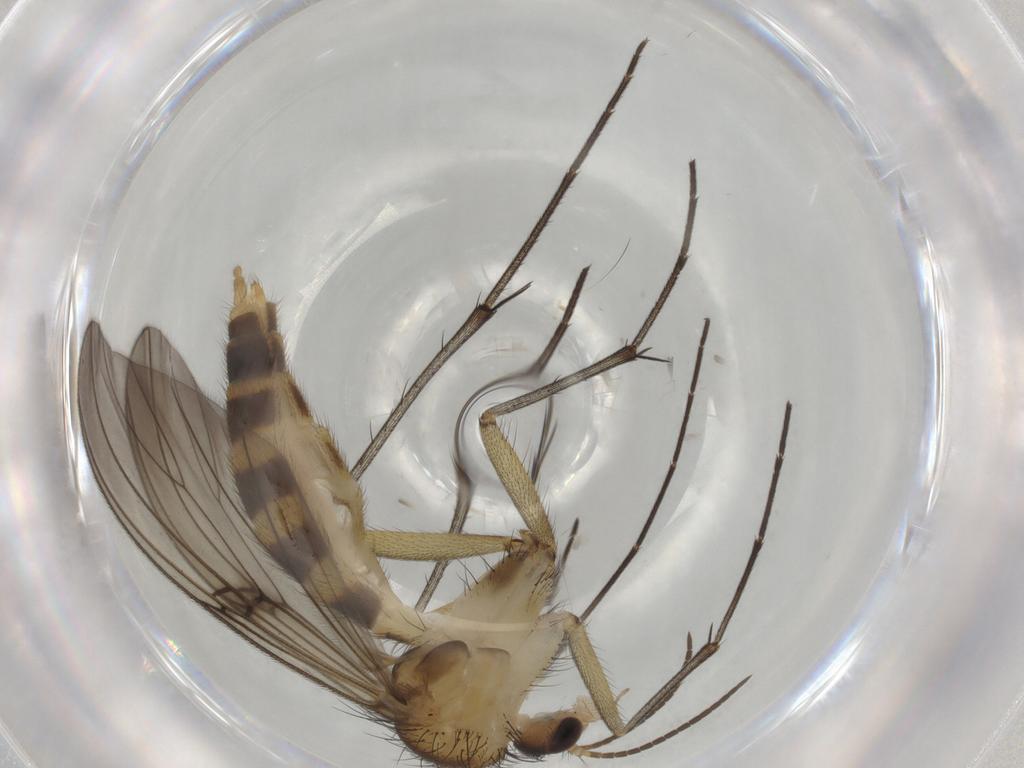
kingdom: Animalia
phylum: Arthropoda
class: Insecta
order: Diptera
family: Mycetophilidae
